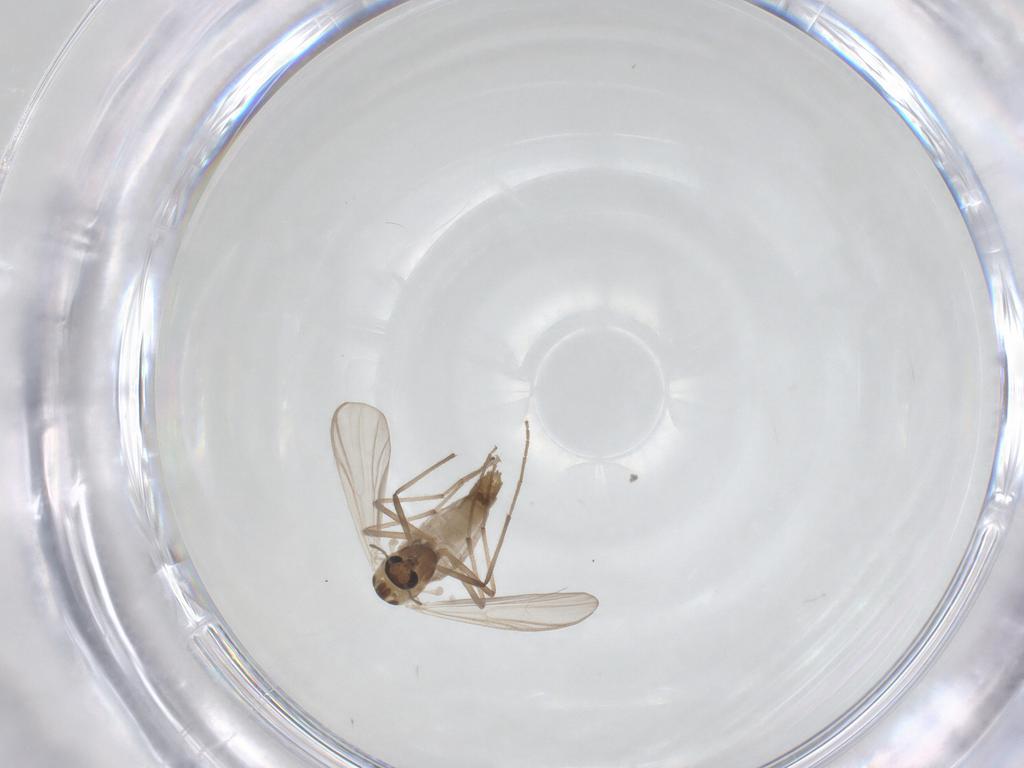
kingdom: Animalia
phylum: Arthropoda
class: Insecta
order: Diptera
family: Chironomidae
